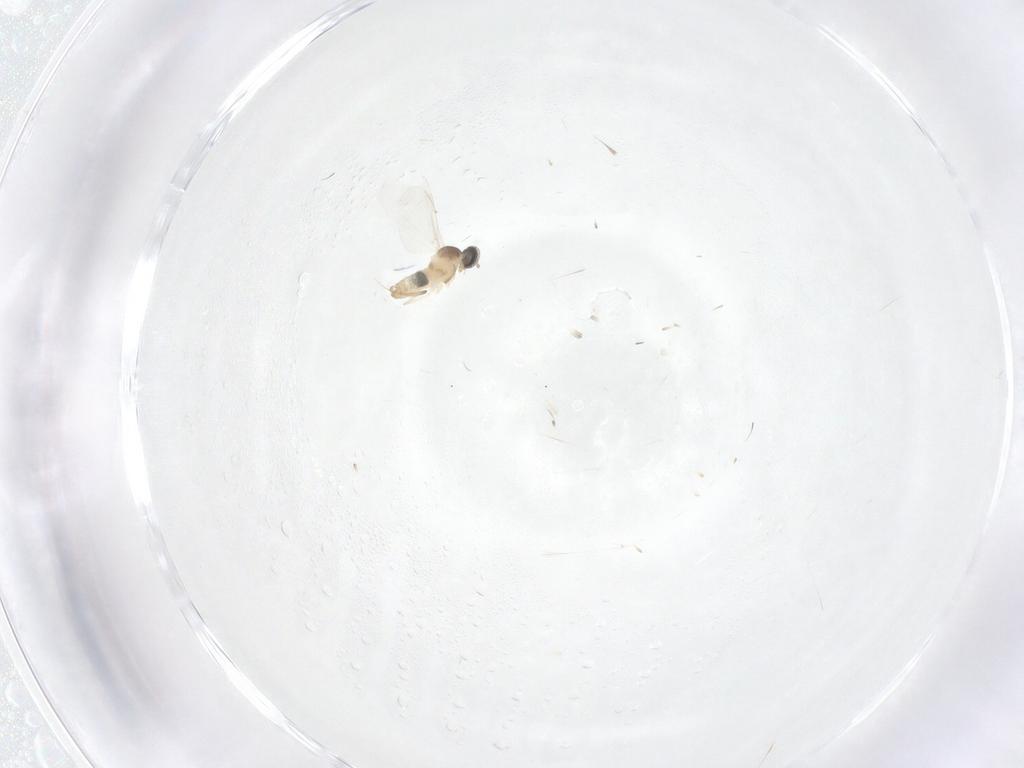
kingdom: Animalia
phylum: Arthropoda
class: Insecta
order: Diptera
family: Cecidomyiidae
